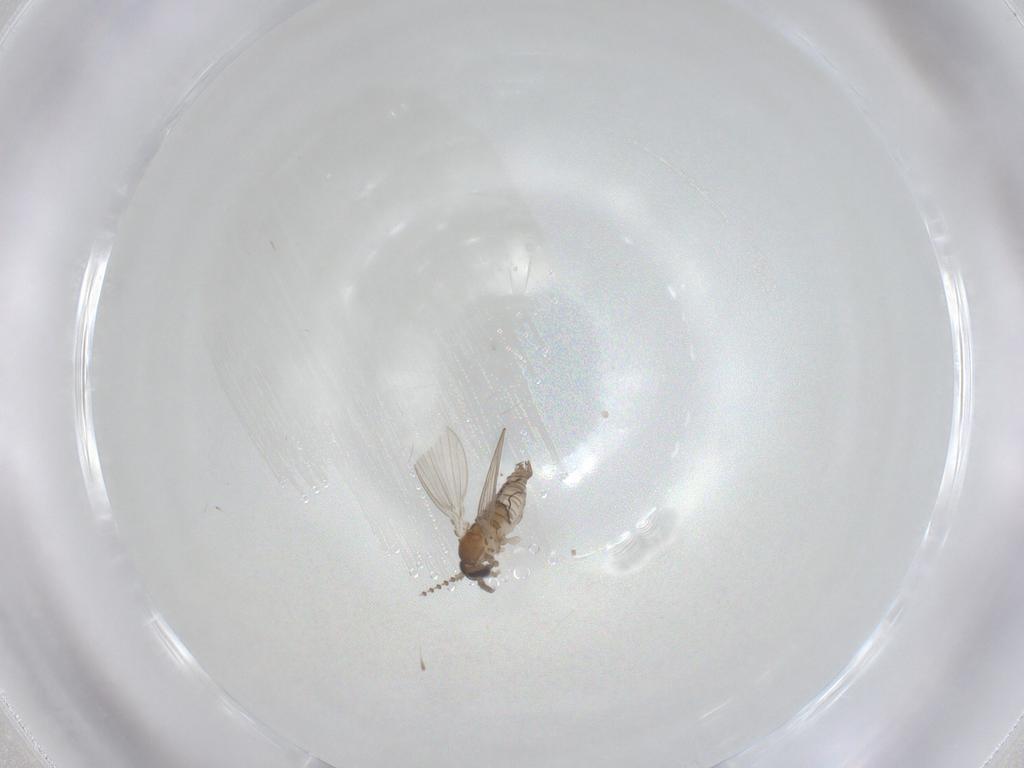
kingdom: Animalia
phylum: Arthropoda
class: Insecta
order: Diptera
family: Psychodidae
